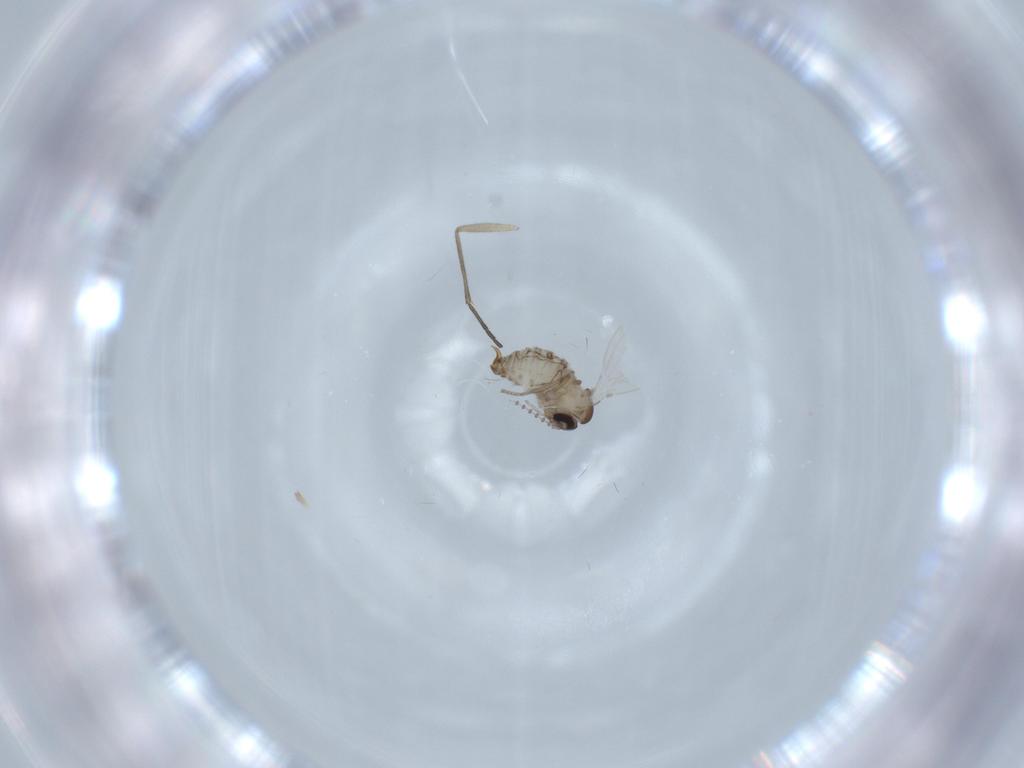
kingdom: Animalia
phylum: Arthropoda
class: Insecta
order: Diptera
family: Psychodidae
